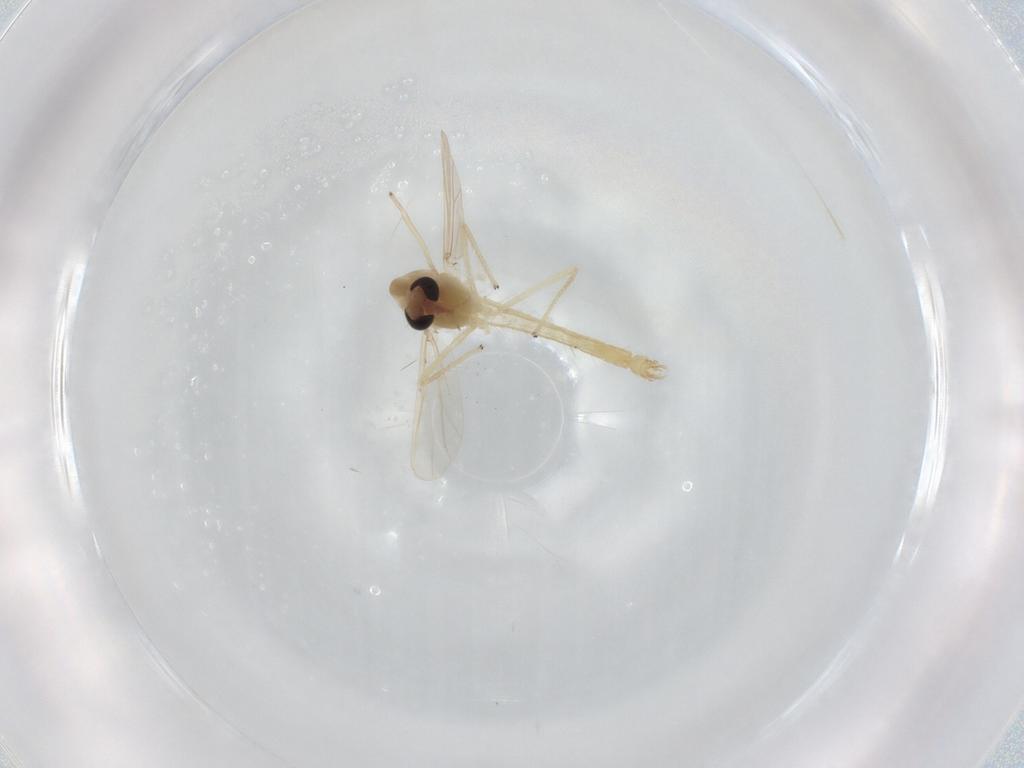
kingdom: Animalia
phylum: Arthropoda
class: Insecta
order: Diptera
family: Chironomidae
